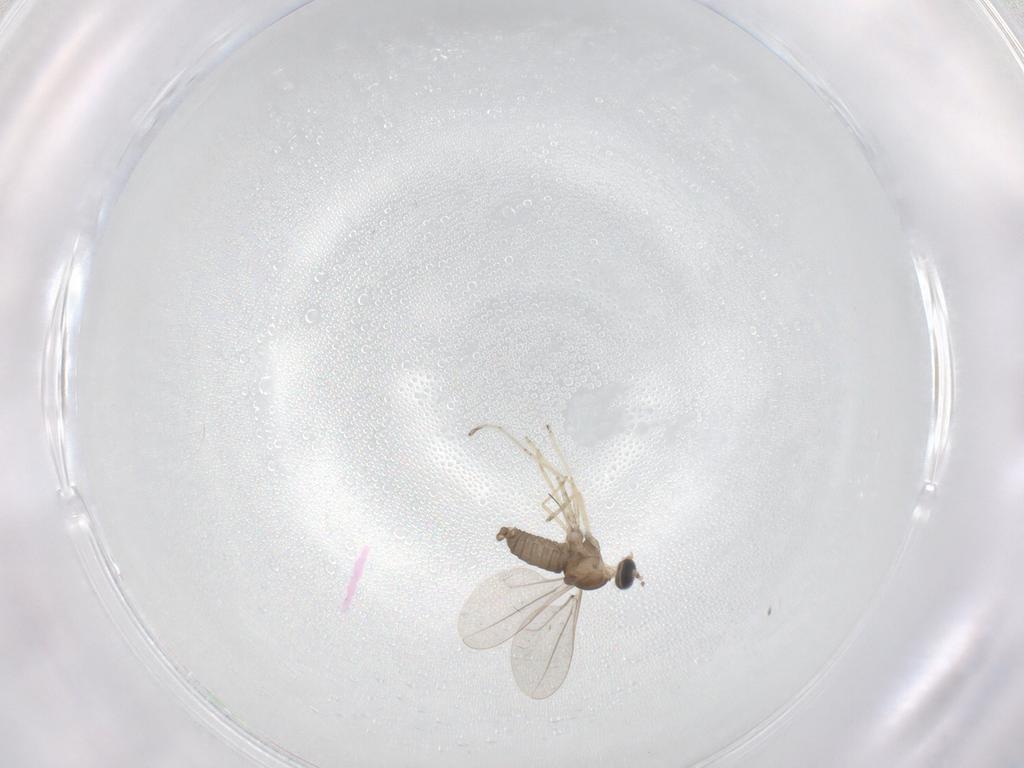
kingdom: Animalia
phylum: Arthropoda
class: Insecta
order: Diptera
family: Cecidomyiidae
